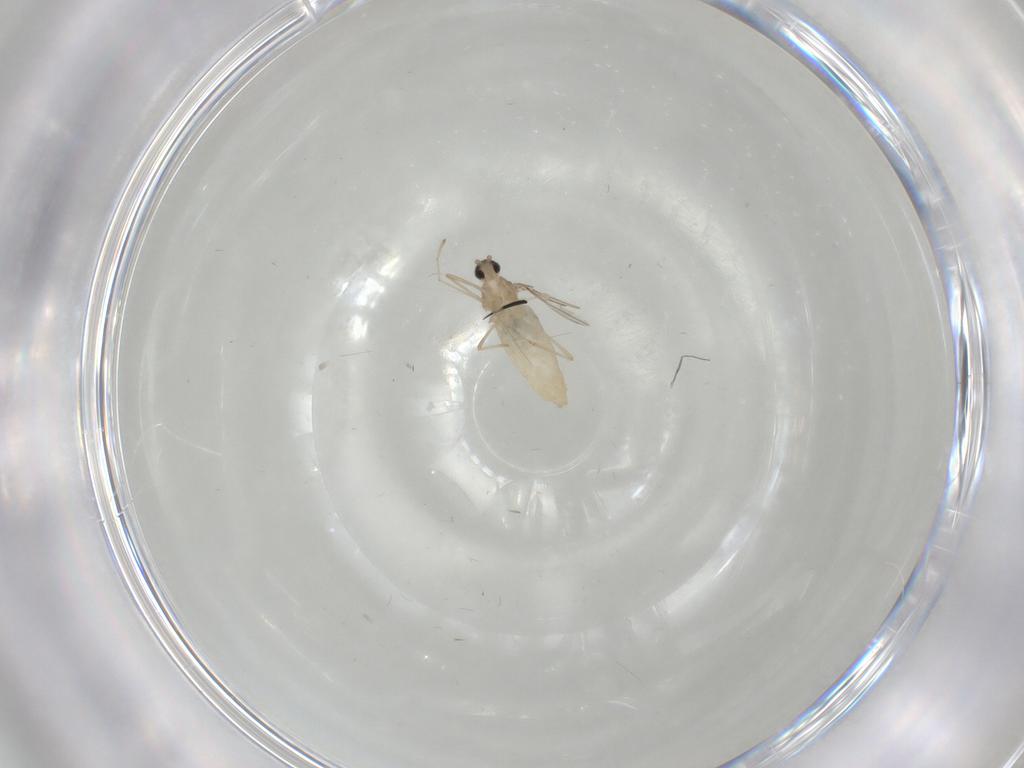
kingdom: Animalia
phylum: Arthropoda
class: Insecta
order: Diptera
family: Cecidomyiidae
